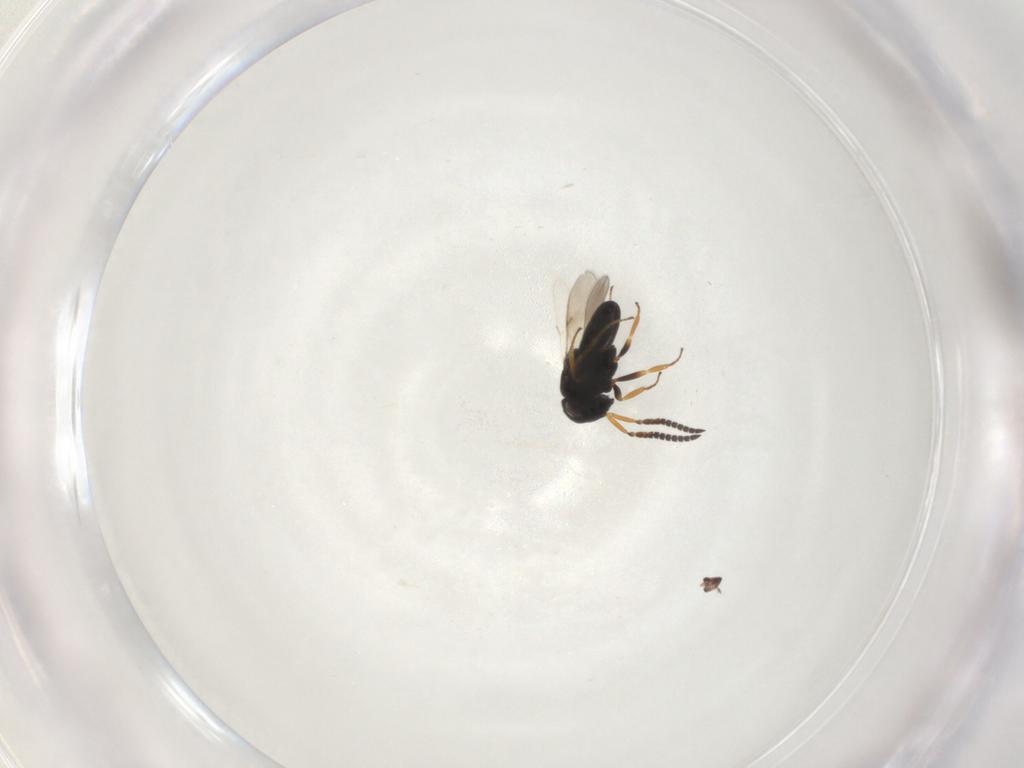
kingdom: Animalia
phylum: Arthropoda
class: Insecta
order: Hymenoptera
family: Scelionidae
